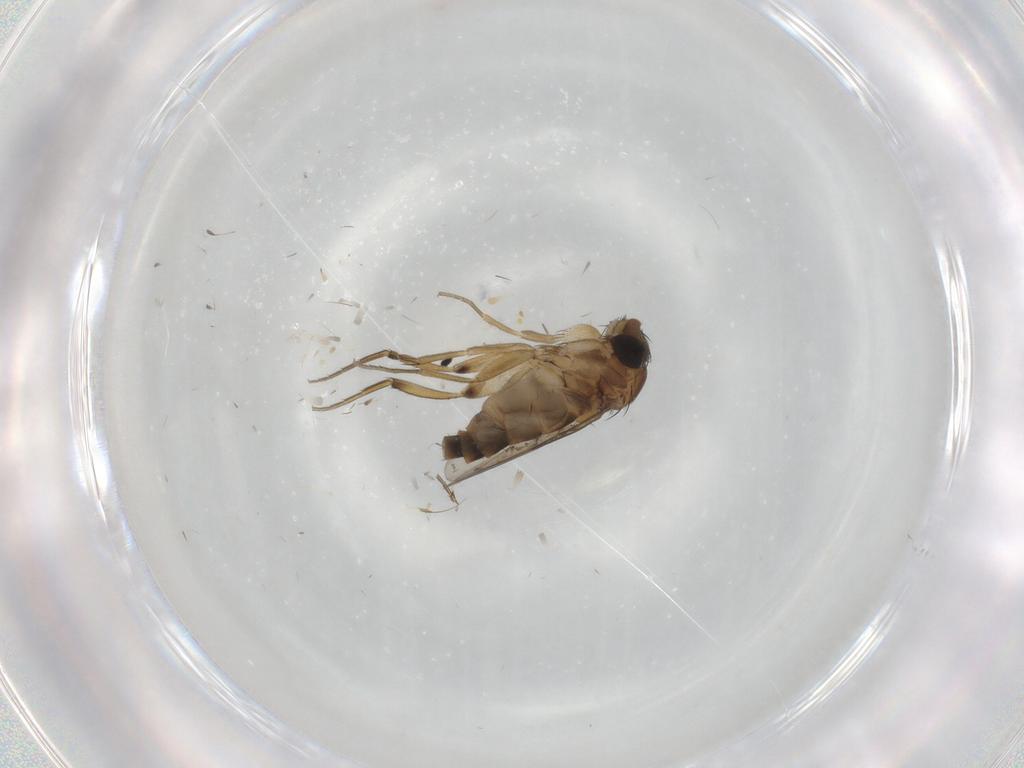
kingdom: Animalia
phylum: Arthropoda
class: Insecta
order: Diptera
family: Phoridae
